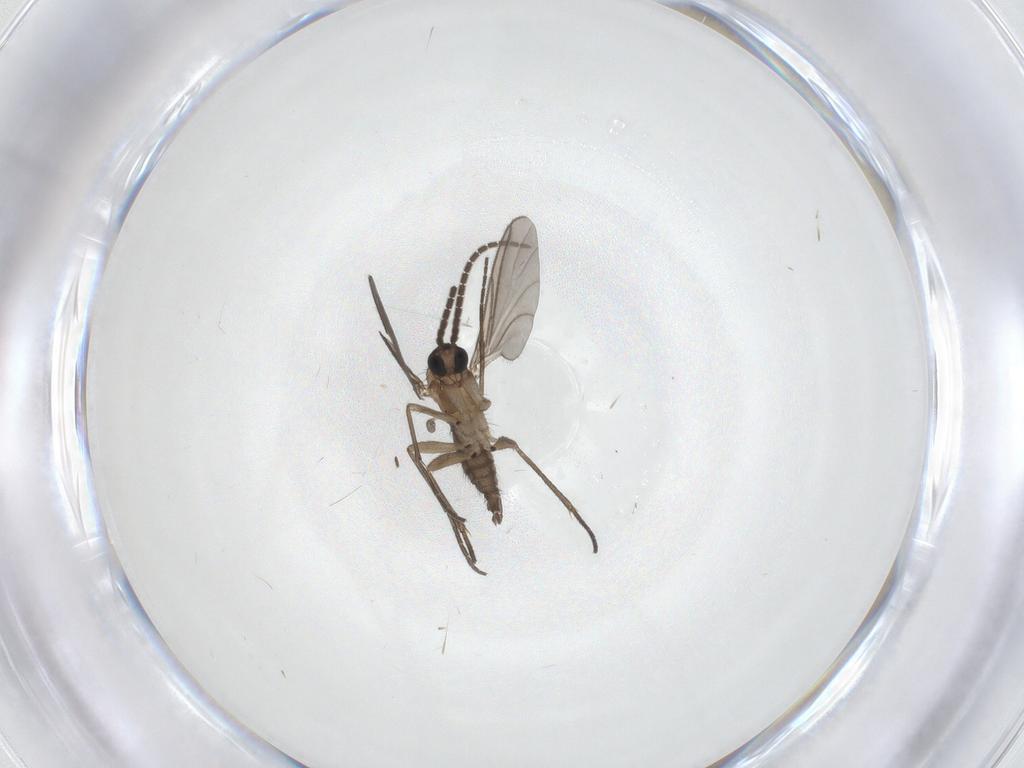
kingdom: Animalia
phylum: Arthropoda
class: Insecta
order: Diptera
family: Sciaridae
